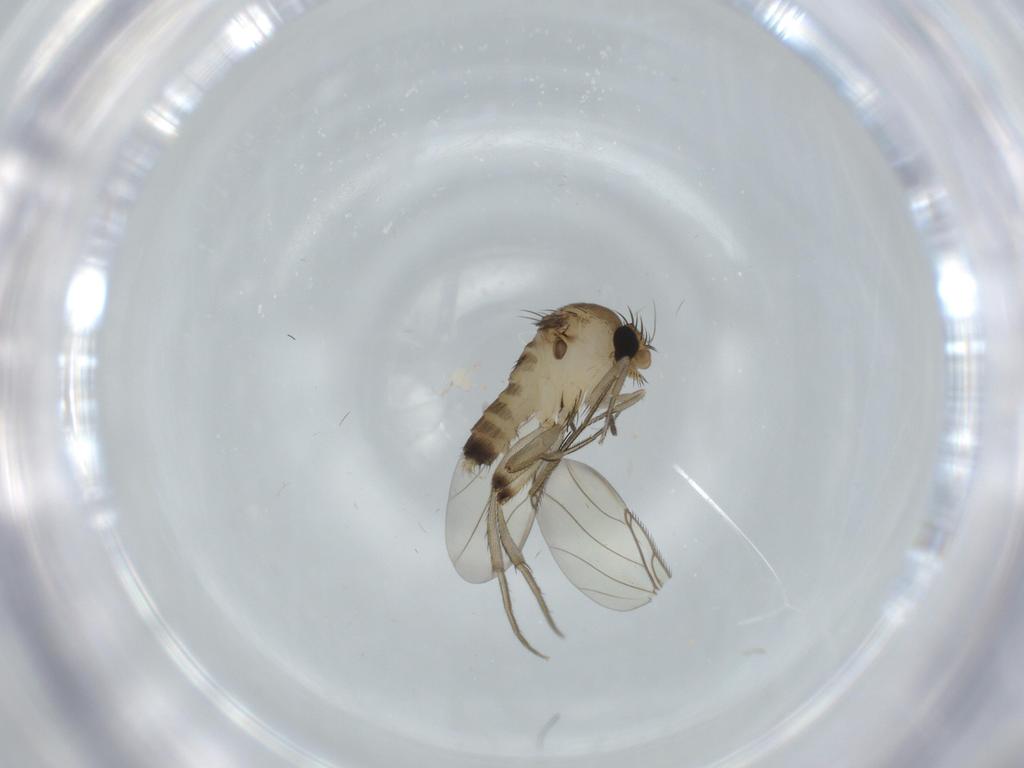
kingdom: Animalia
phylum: Arthropoda
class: Insecta
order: Diptera
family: Phoridae
